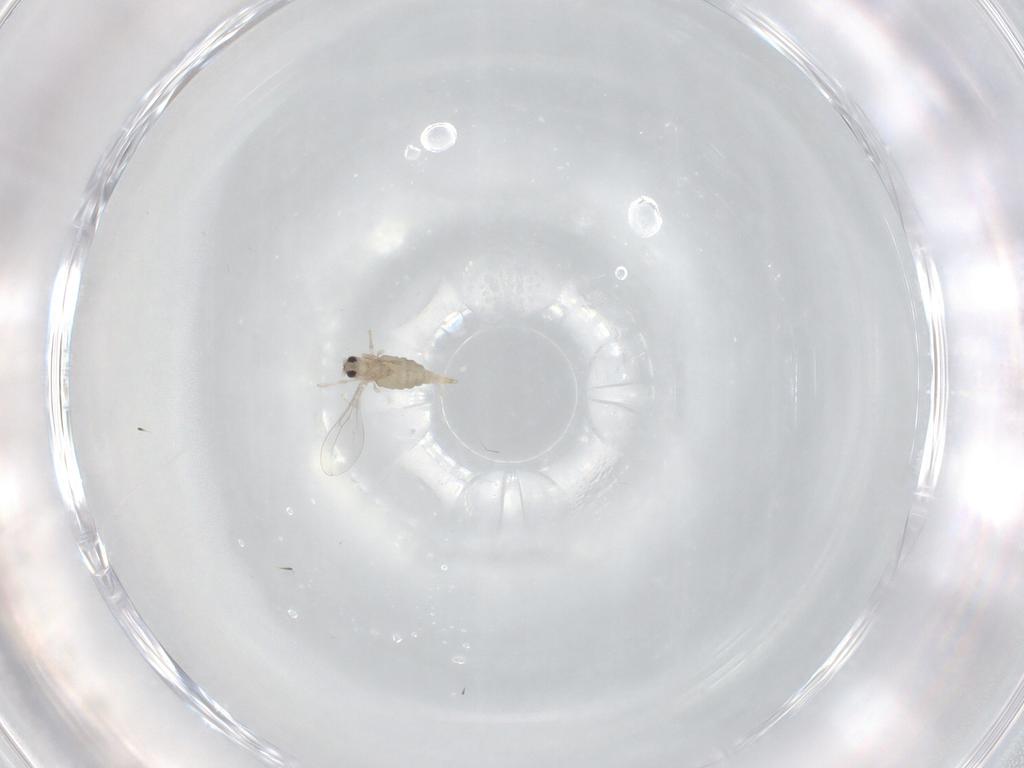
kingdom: Animalia
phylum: Arthropoda
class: Insecta
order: Diptera
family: Cecidomyiidae
